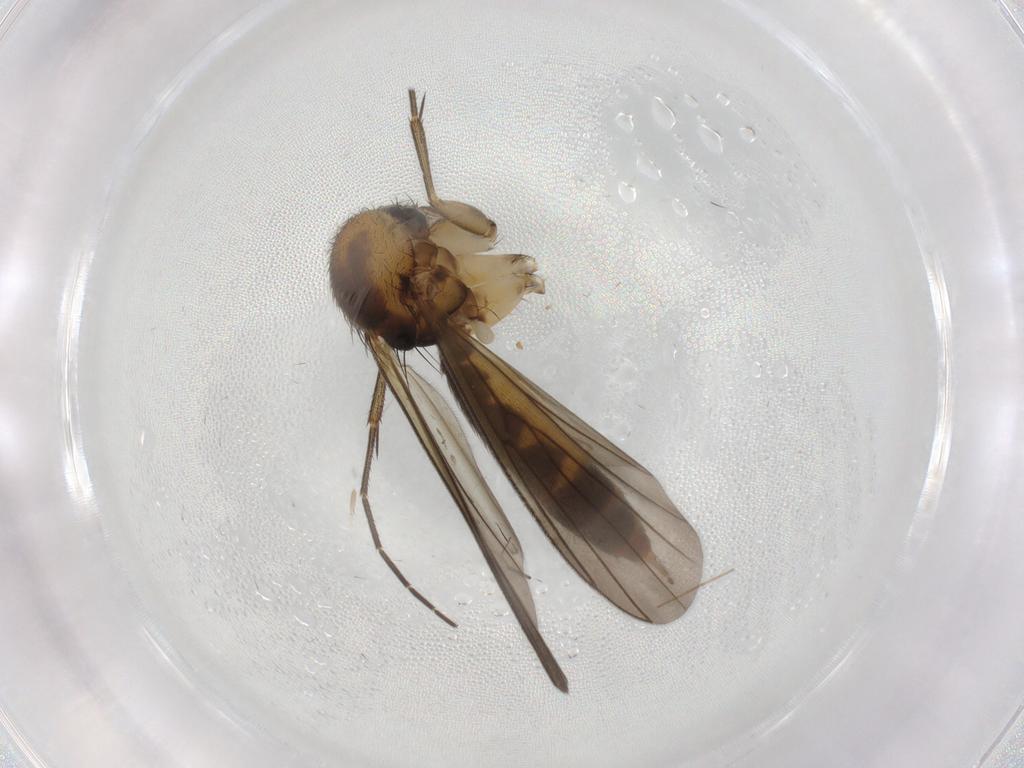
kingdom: Animalia
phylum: Arthropoda
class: Insecta
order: Diptera
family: Mycetophilidae
